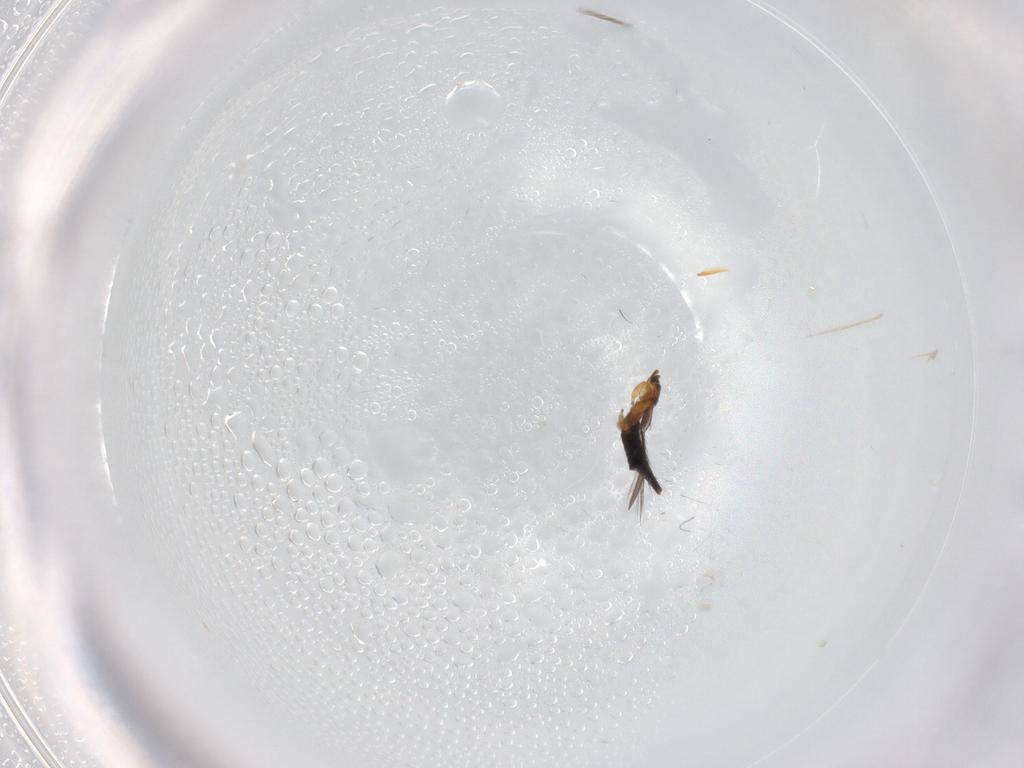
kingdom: Animalia
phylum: Arthropoda
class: Insecta
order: Thysanoptera
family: Thripidae
